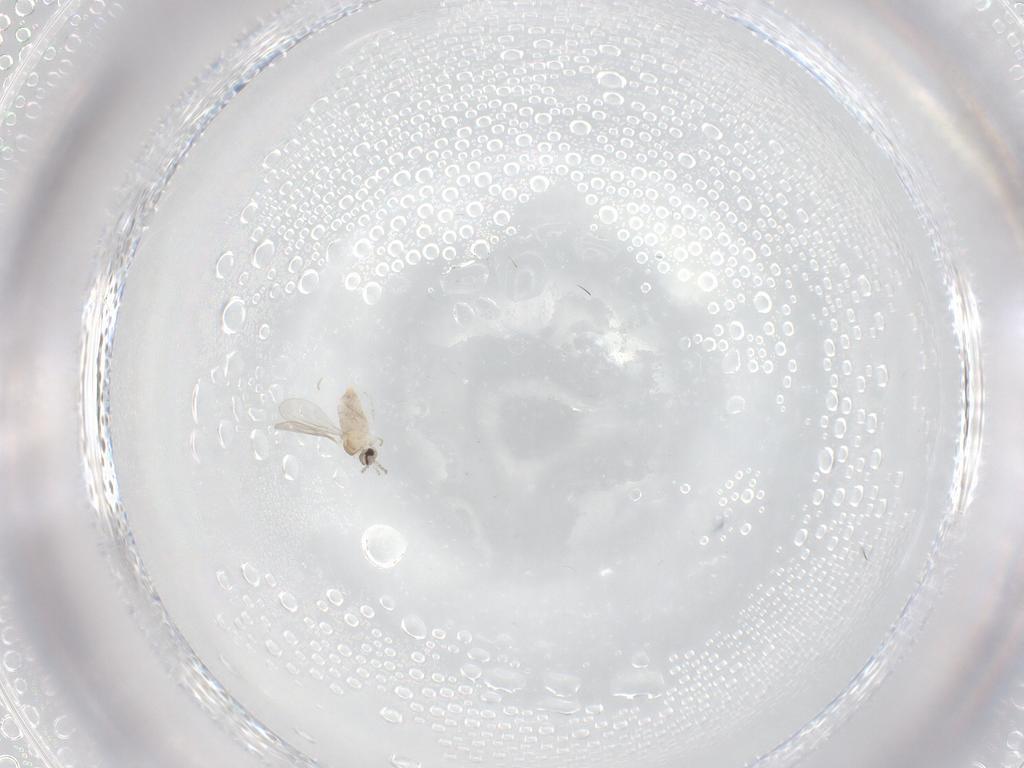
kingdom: Animalia
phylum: Arthropoda
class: Insecta
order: Diptera
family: Cecidomyiidae
